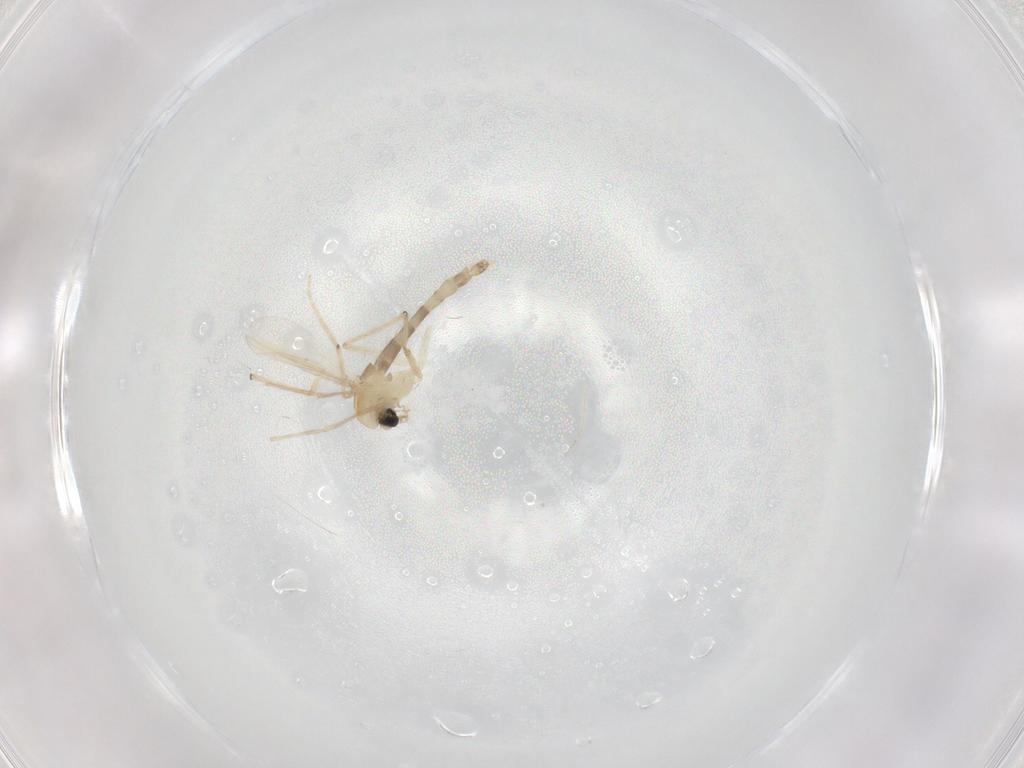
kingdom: Animalia
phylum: Arthropoda
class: Insecta
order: Diptera
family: Chironomidae
